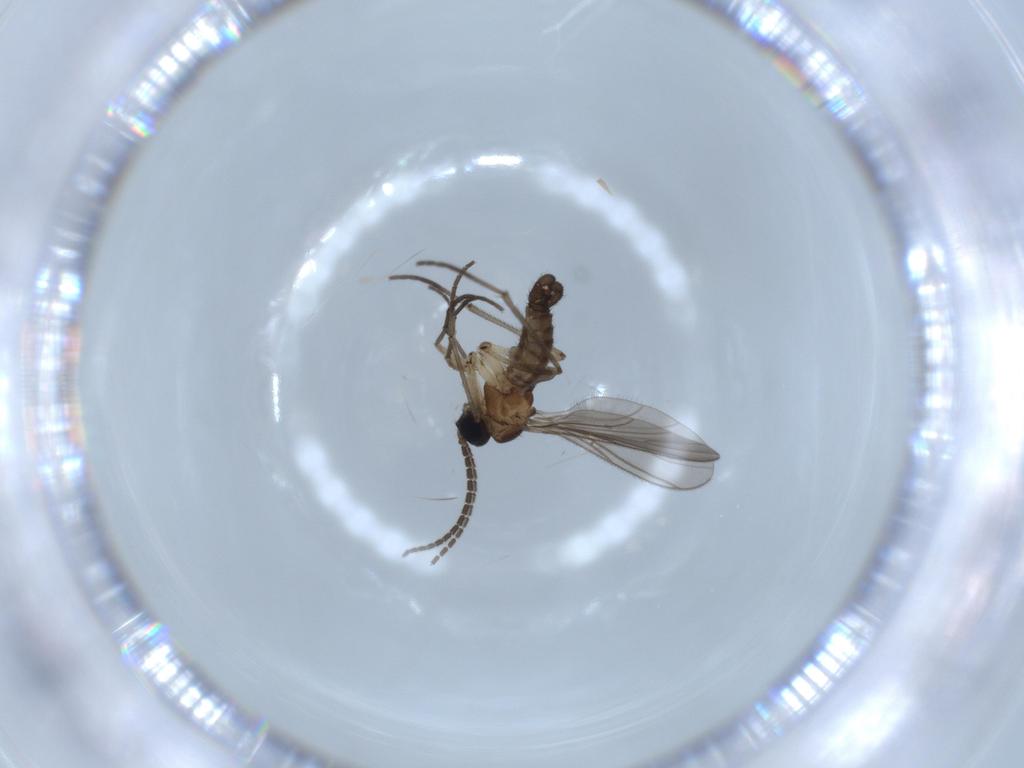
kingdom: Animalia
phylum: Arthropoda
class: Insecta
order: Diptera
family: Sciaridae
